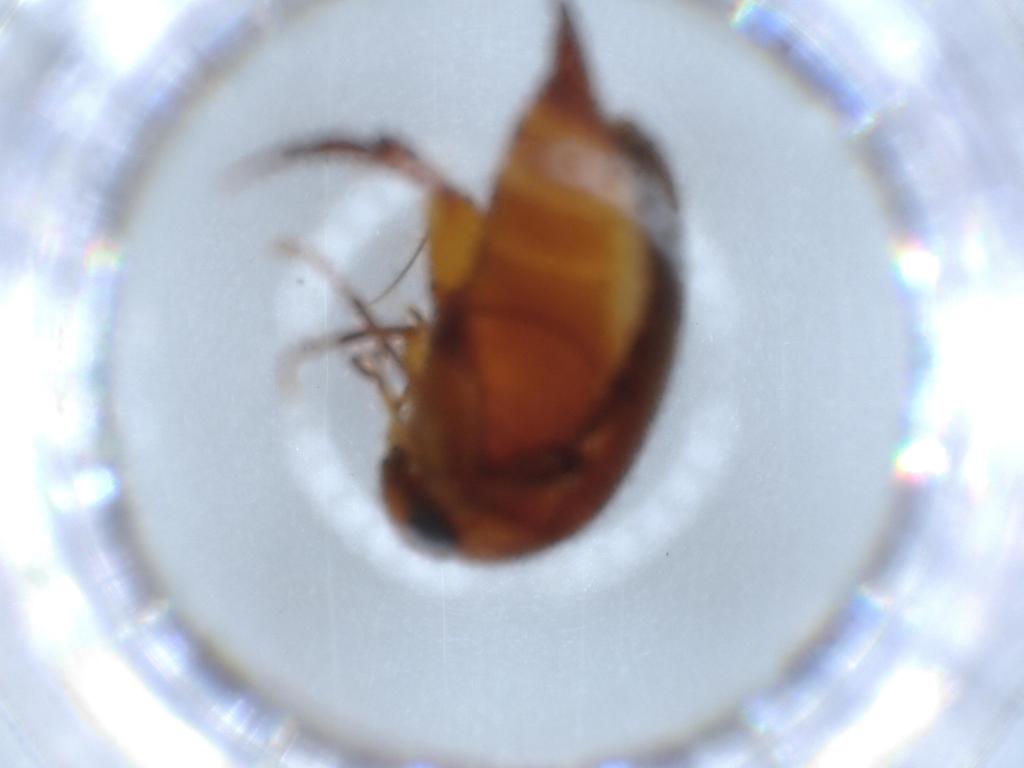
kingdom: Animalia
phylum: Arthropoda
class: Insecta
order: Coleoptera
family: Mordellidae
